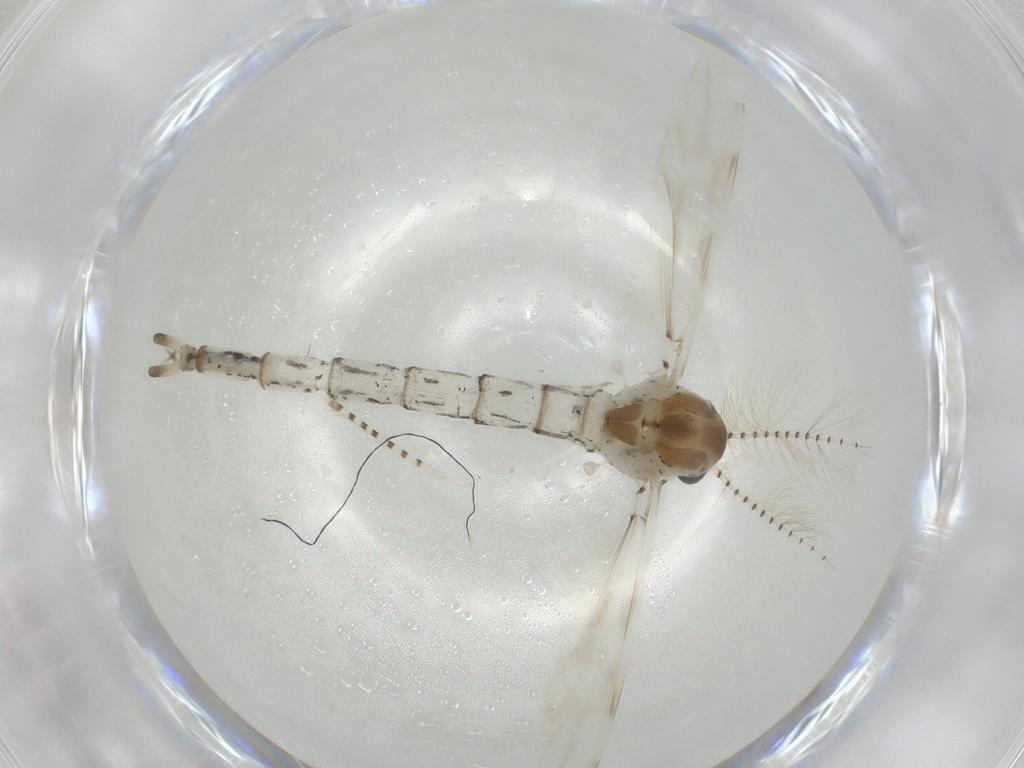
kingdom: Animalia
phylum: Arthropoda
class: Insecta
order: Diptera
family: Chaoboridae
